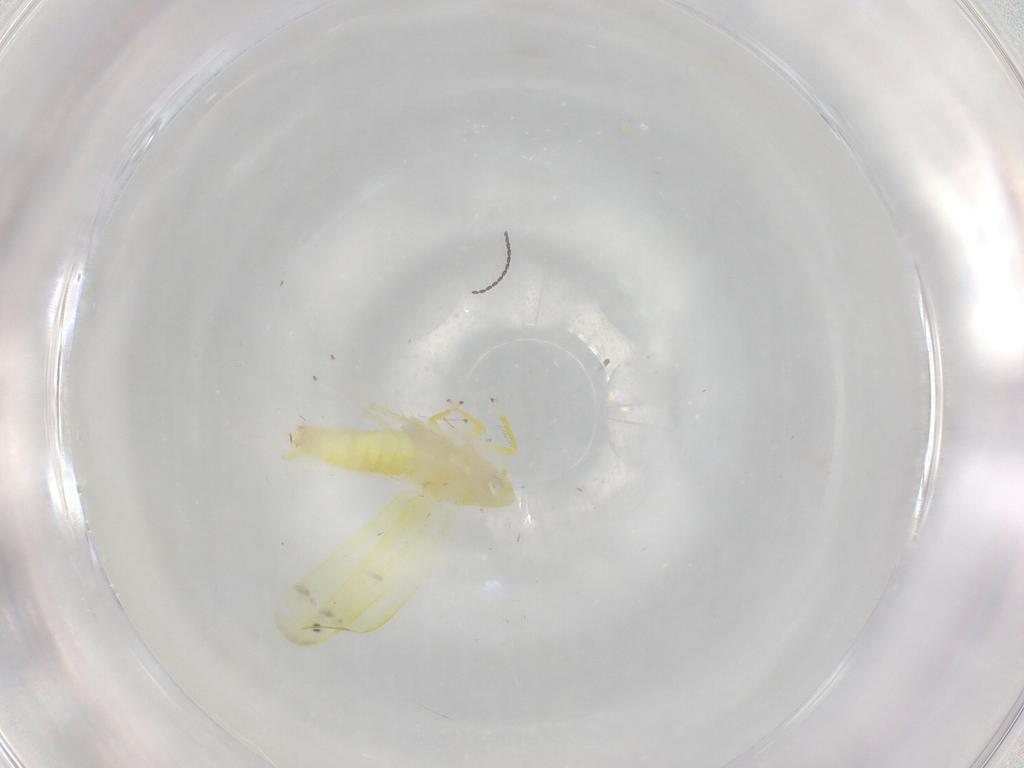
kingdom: Animalia
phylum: Arthropoda
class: Insecta
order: Hemiptera
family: Cicadellidae
